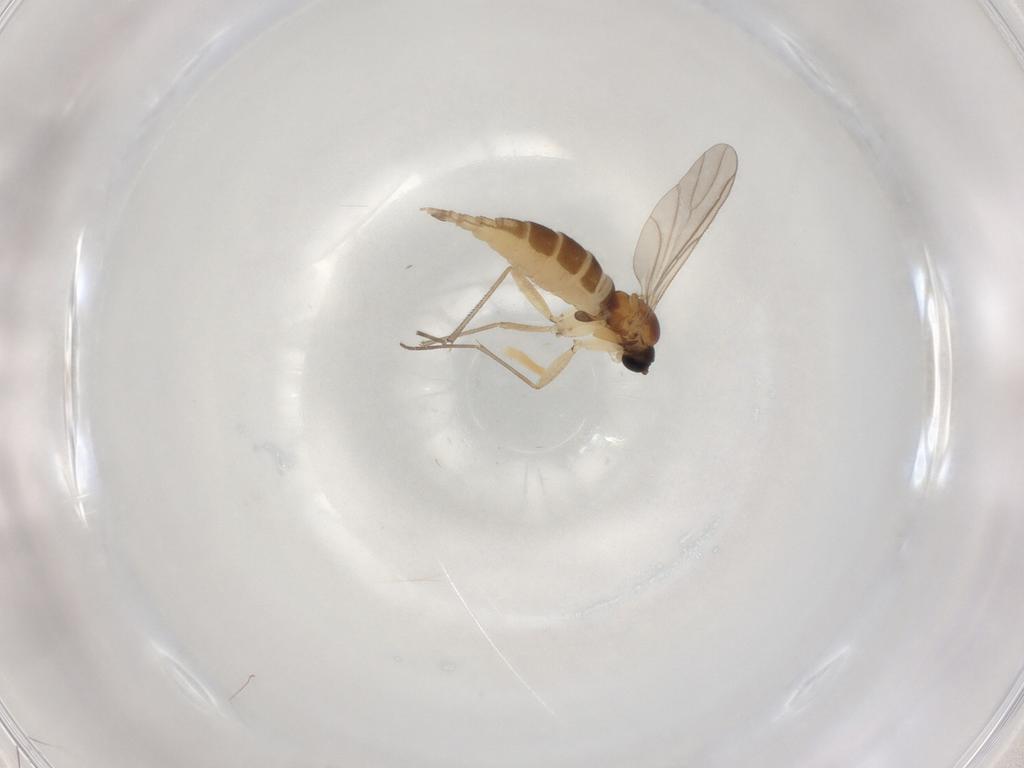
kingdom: Animalia
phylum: Arthropoda
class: Insecta
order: Diptera
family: Sciaridae
